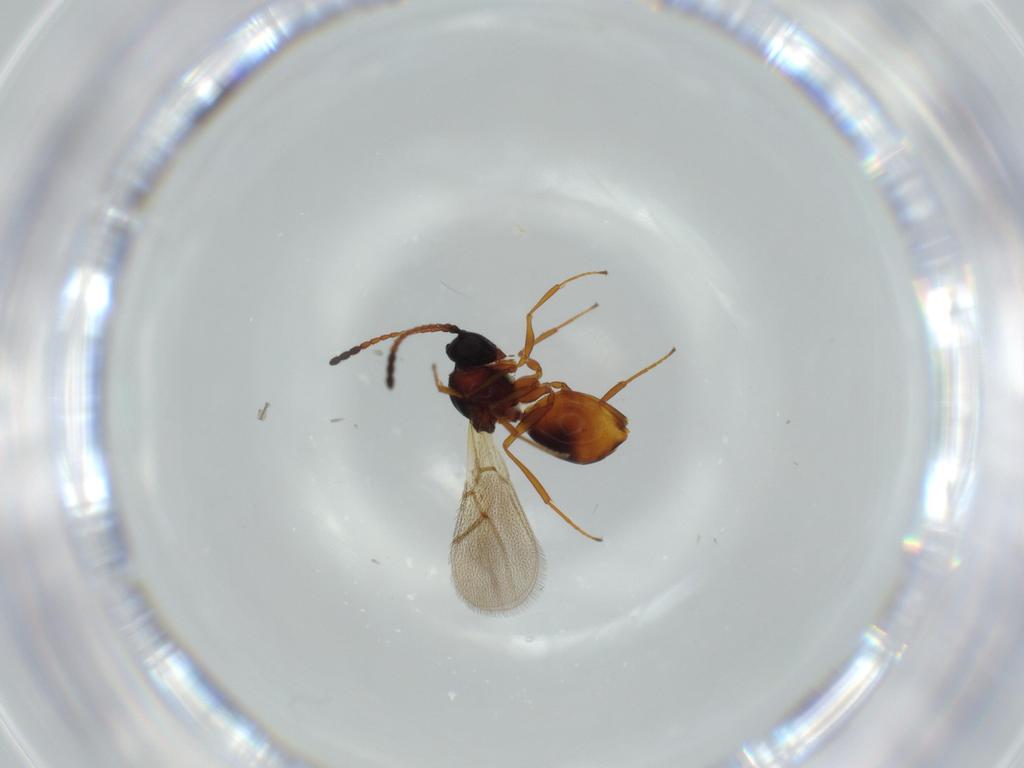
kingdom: Animalia
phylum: Arthropoda
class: Insecta
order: Hymenoptera
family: Figitidae
